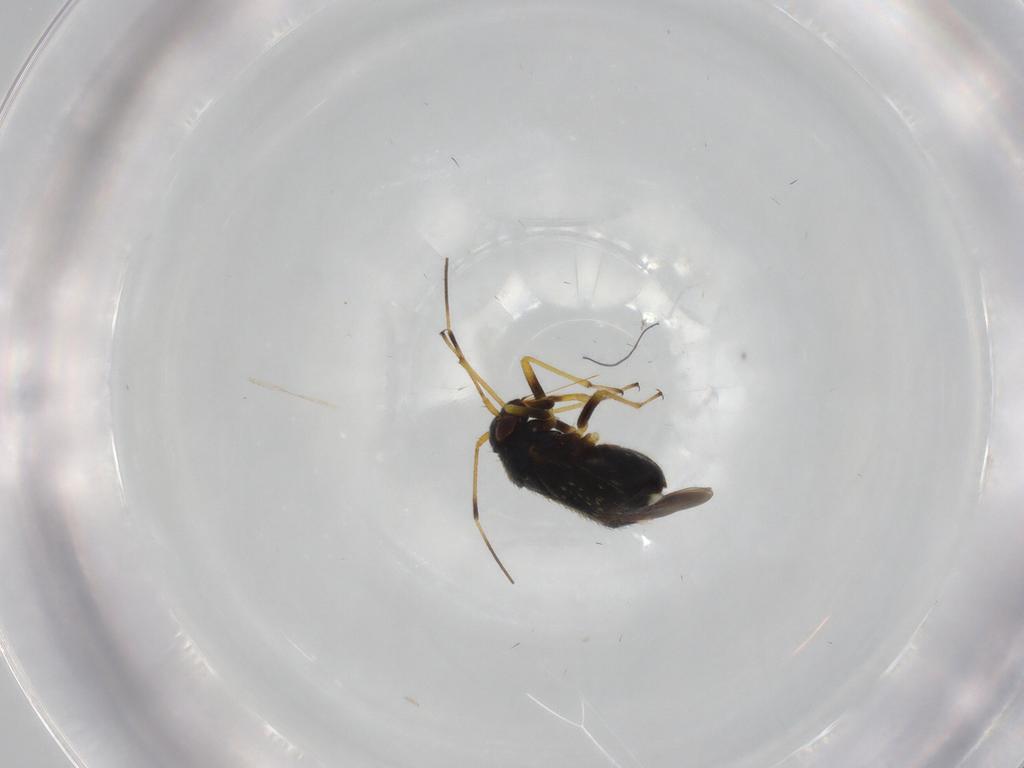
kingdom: Animalia
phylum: Arthropoda
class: Insecta
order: Hemiptera
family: Miridae
